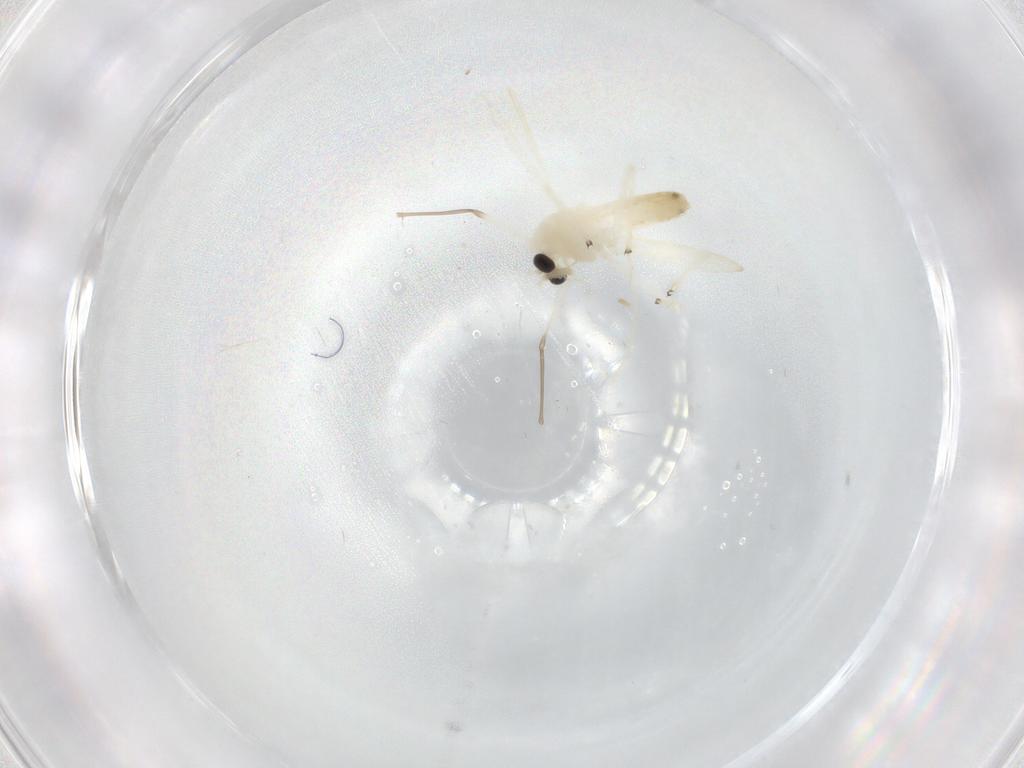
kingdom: Animalia
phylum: Arthropoda
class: Insecta
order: Diptera
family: Chironomidae
